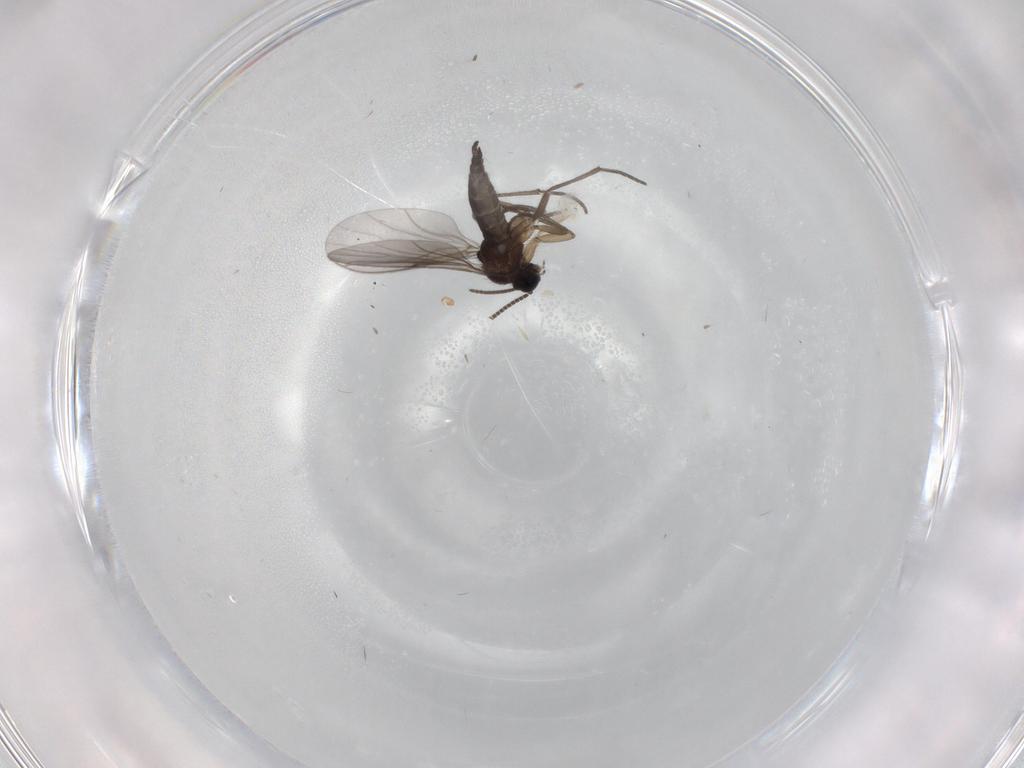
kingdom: Animalia
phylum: Arthropoda
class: Insecta
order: Diptera
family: Sciaridae
